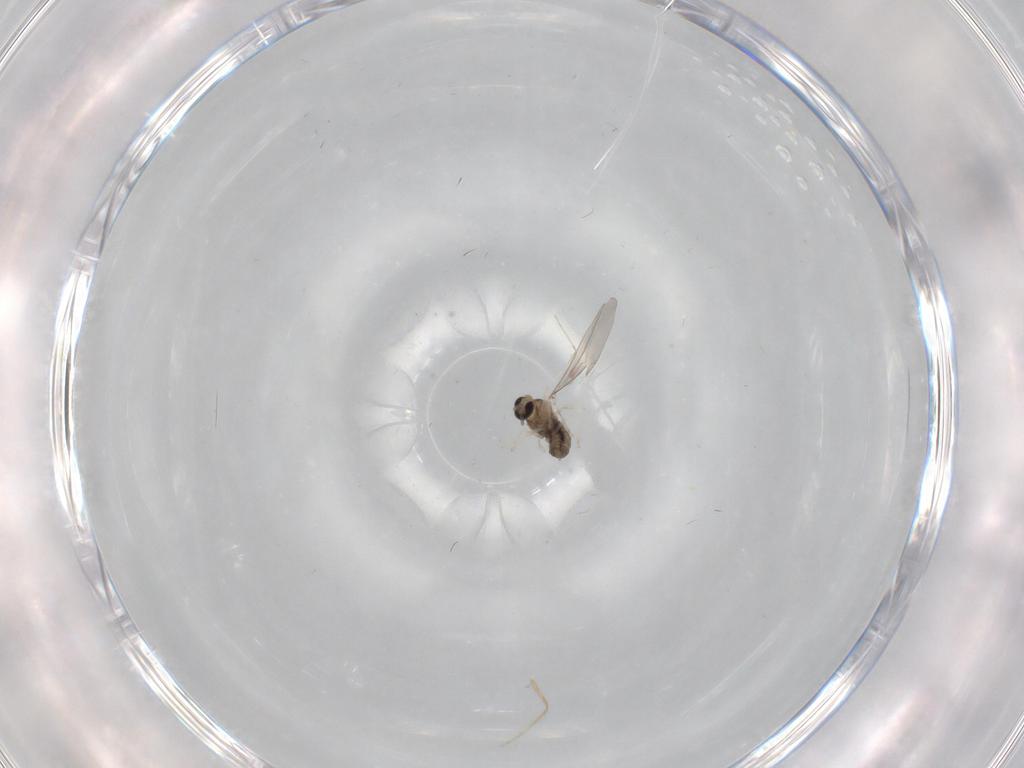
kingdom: Animalia
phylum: Arthropoda
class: Insecta
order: Diptera
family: Cecidomyiidae
